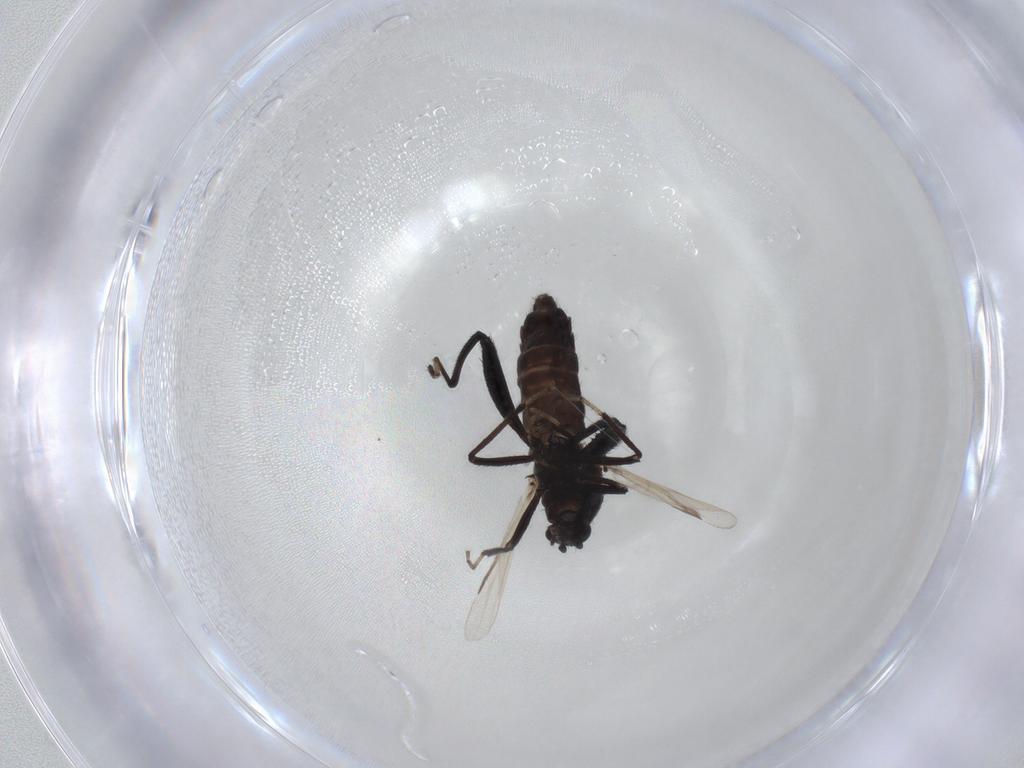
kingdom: Animalia
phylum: Arthropoda
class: Insecta
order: Diptera
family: Ceratopogonidae
